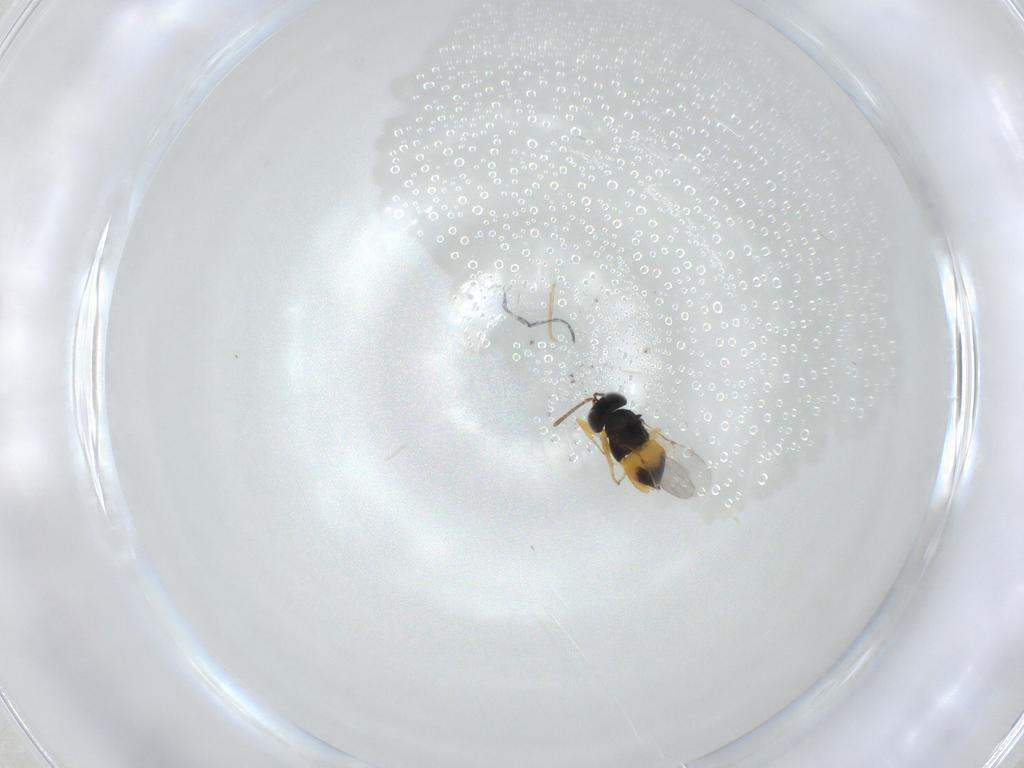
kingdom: Animalia
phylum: Arthropoda
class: Insecta
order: Hymenoptera
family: Encyrtidae
